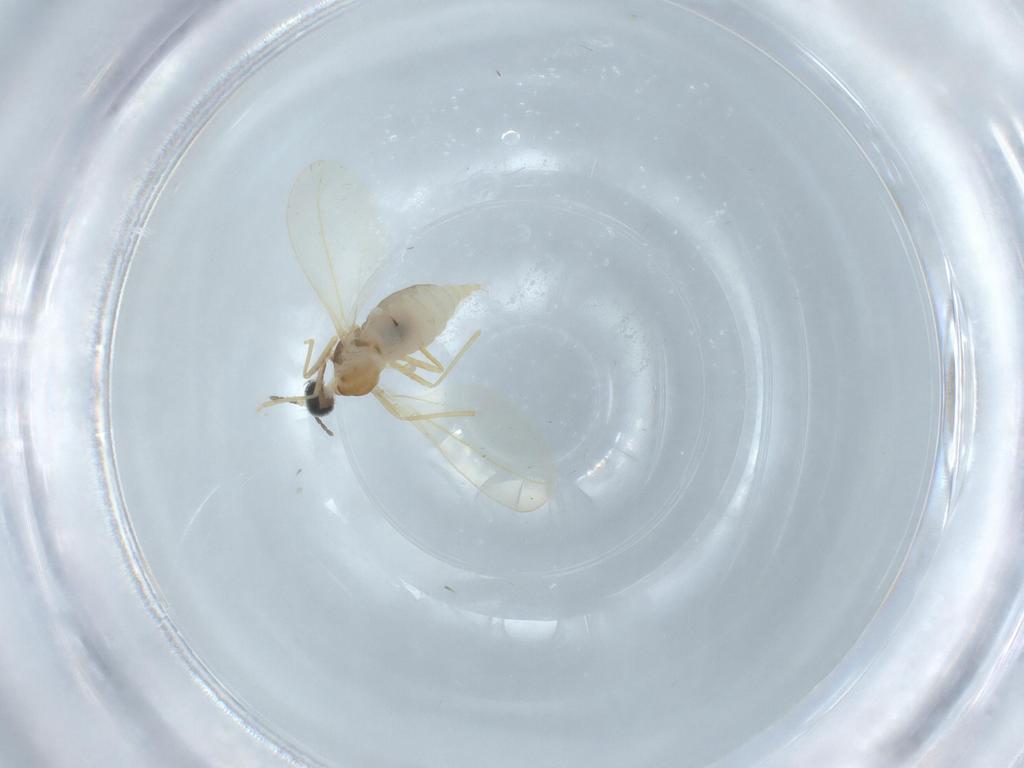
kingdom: Animalia
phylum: Arthropoda
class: Insecta
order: Diptera
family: Cecidomyiidae
